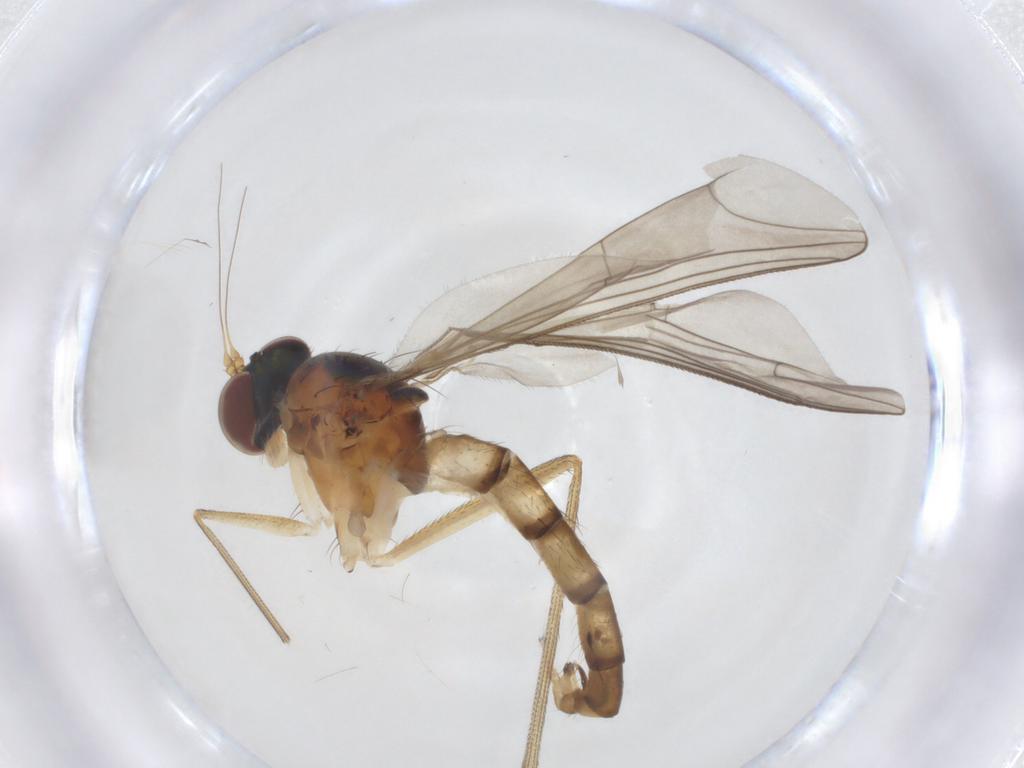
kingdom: Animalia
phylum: Arthropoda
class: Insecta
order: Diptera
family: Dolichopodidae
